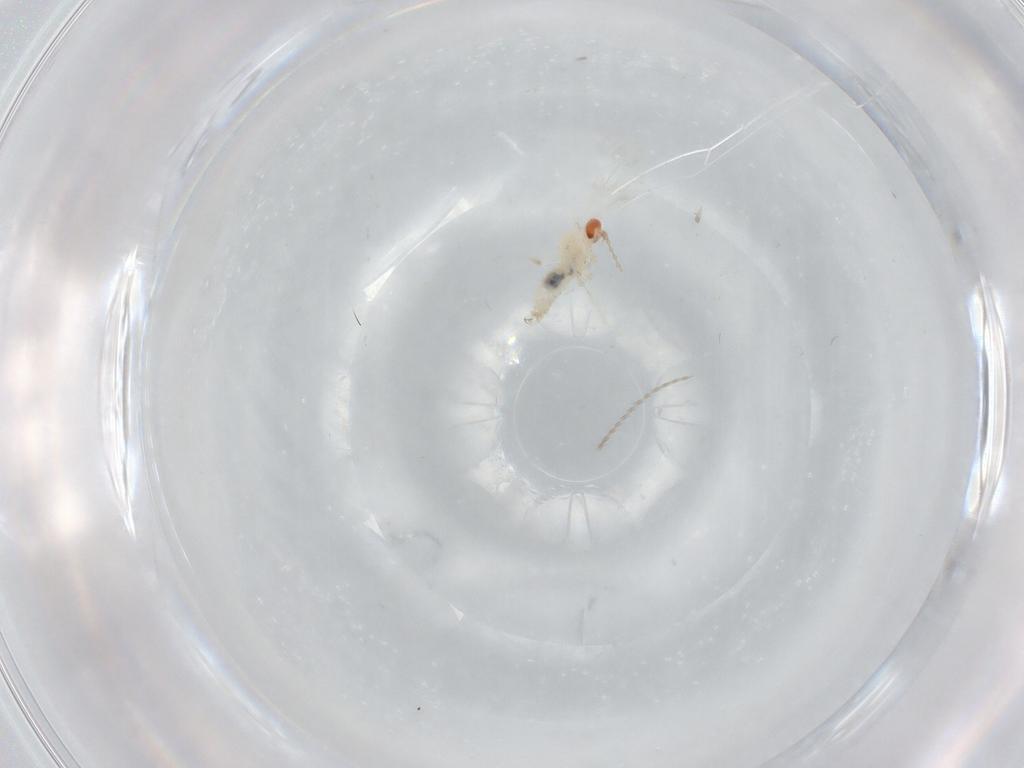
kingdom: Animalia
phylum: Arthropoda
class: Insecta
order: Diptera
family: Cecidomyiidae
